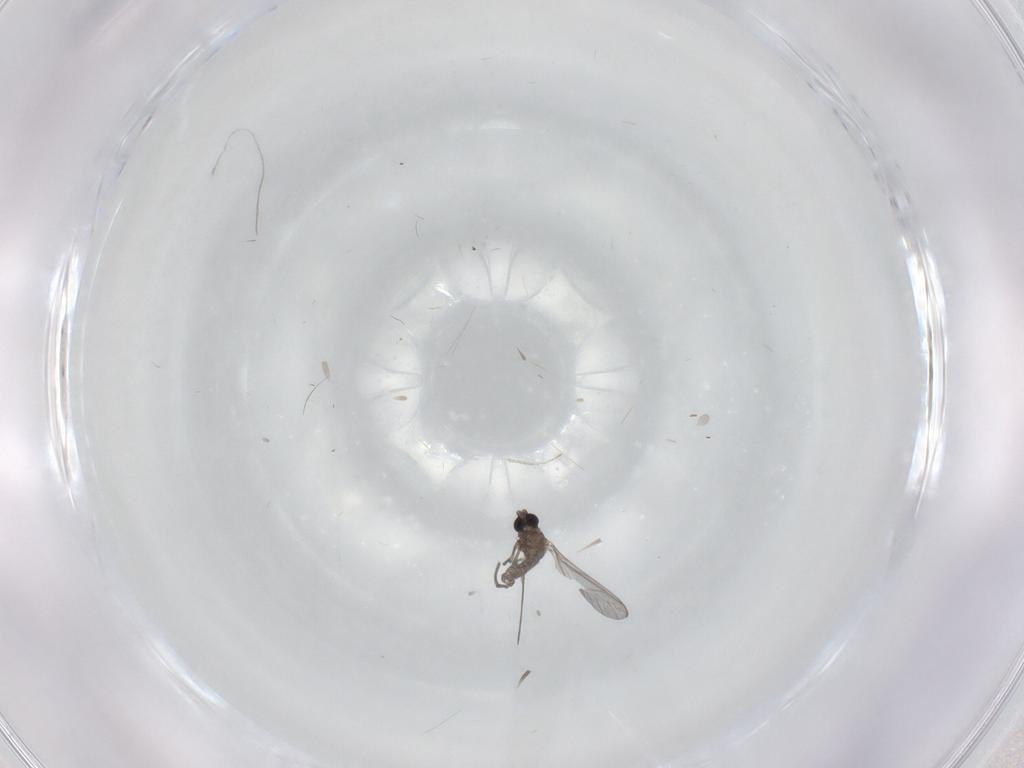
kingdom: Animalia
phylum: Arthropoda
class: Insecta
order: Diptera
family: Sciaridae
